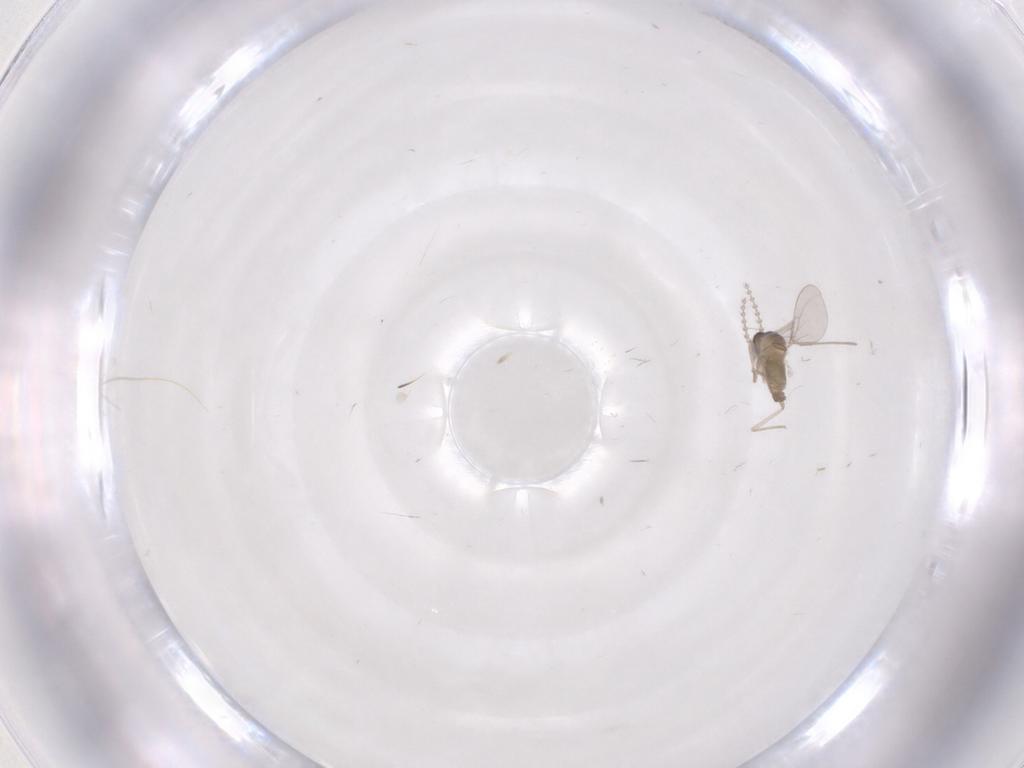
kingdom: Animalia
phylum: Arthropoda
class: Insecta
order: Diptera
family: Cecidomyiidae
